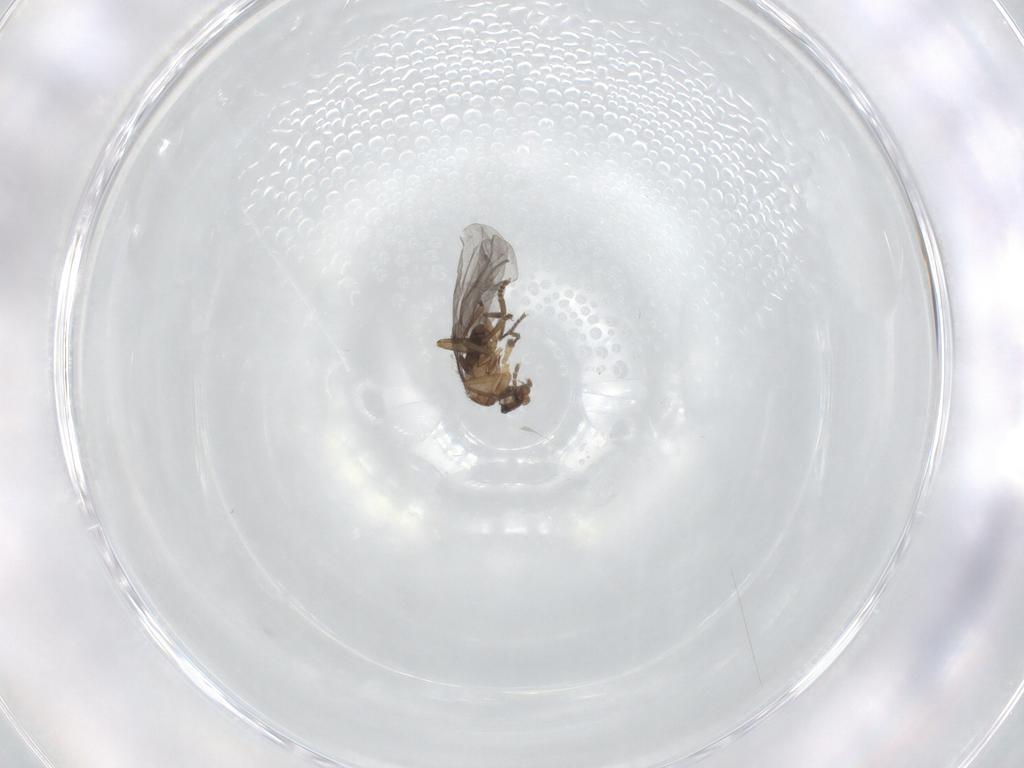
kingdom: Animalia
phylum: Arthropoda
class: Insecta
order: Diptera
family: Phoridae
